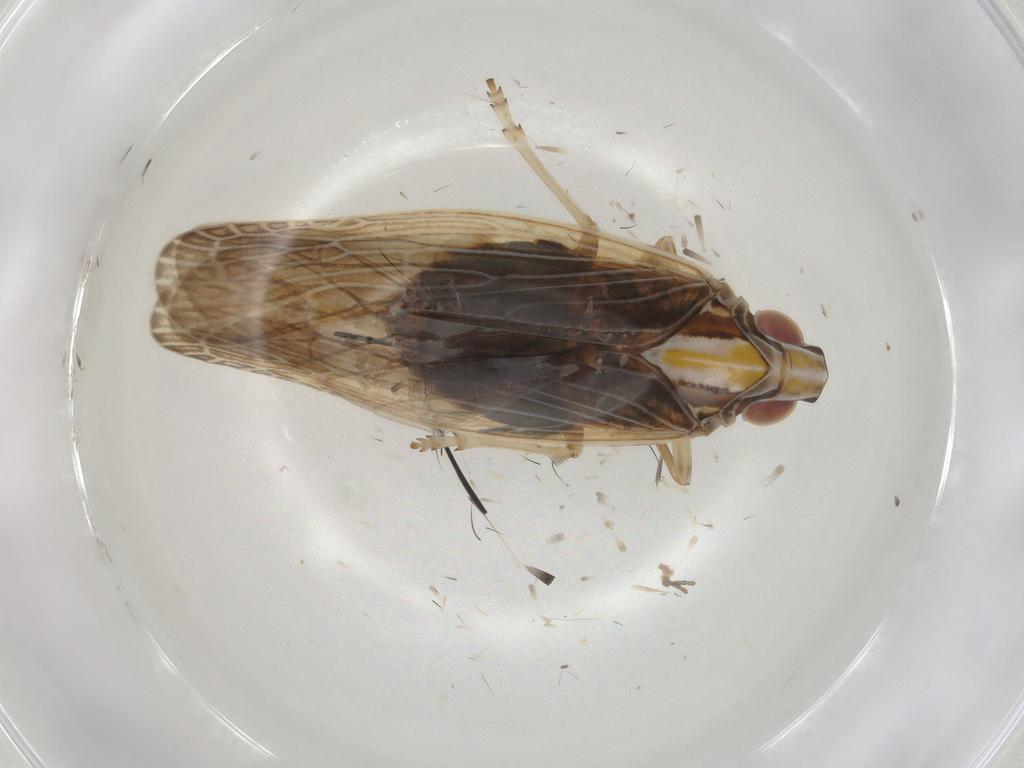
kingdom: Animalia
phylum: Arthropoda
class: Insecta
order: Hemiptera
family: Achilidae
